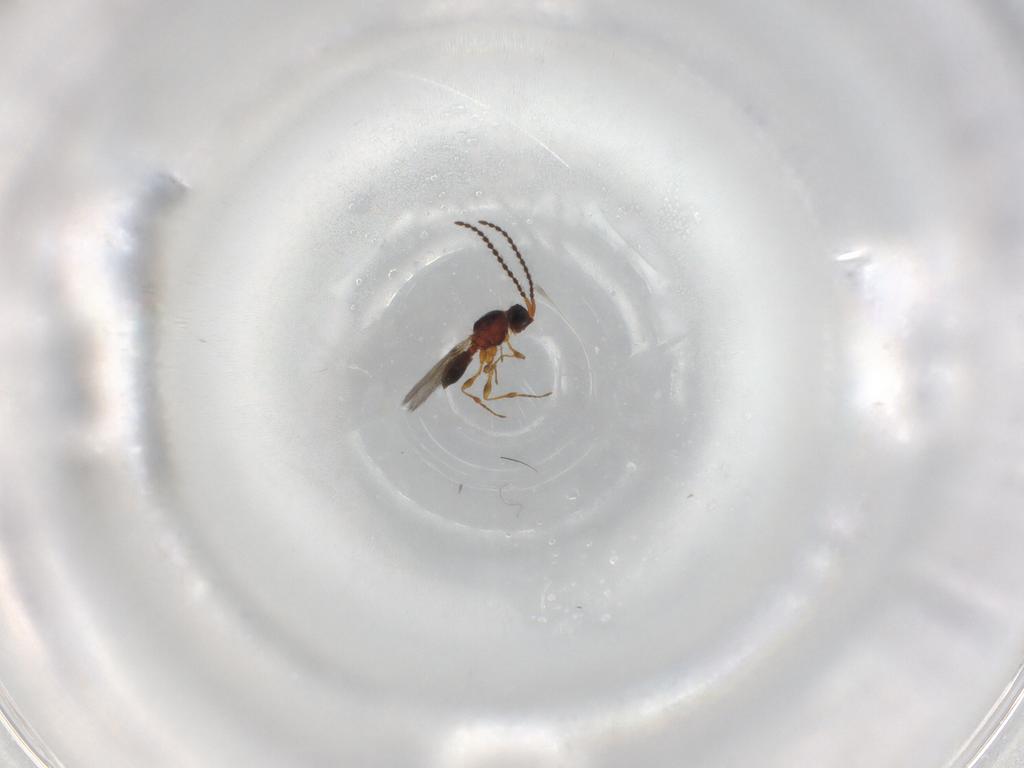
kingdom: Animalia
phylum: Arthropoda
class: Insecta
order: Hymenoptera
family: Diapriidae
